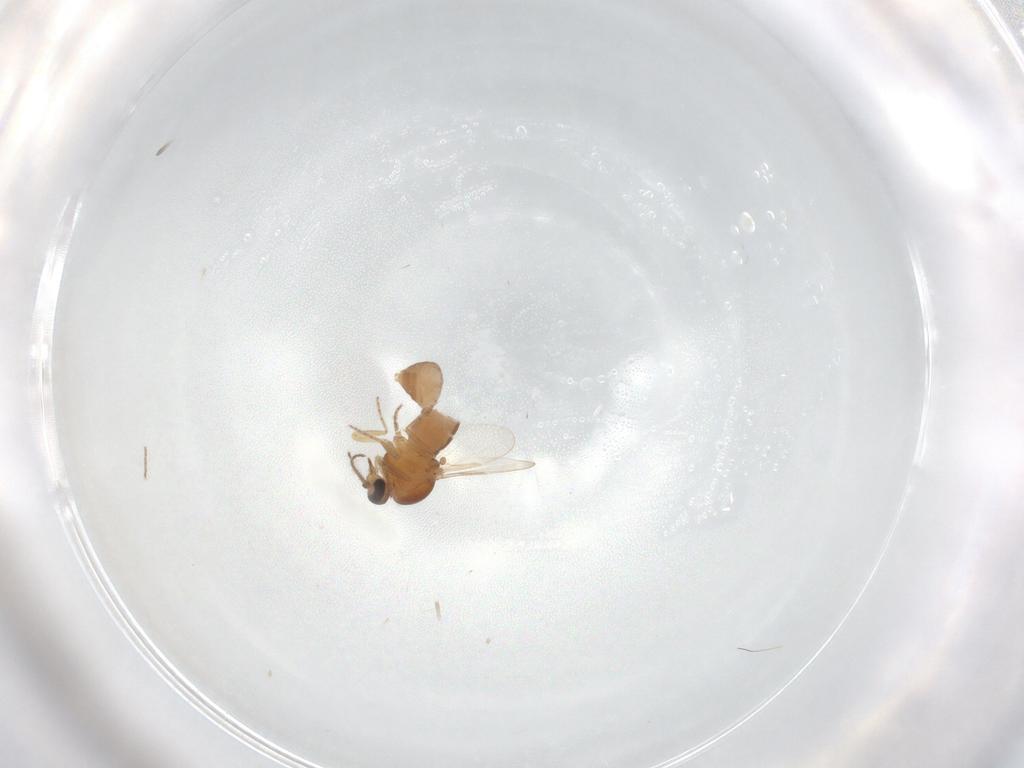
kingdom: Animalia
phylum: Arthropoda
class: Insecta
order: Diptera
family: Ceratopogonidae
